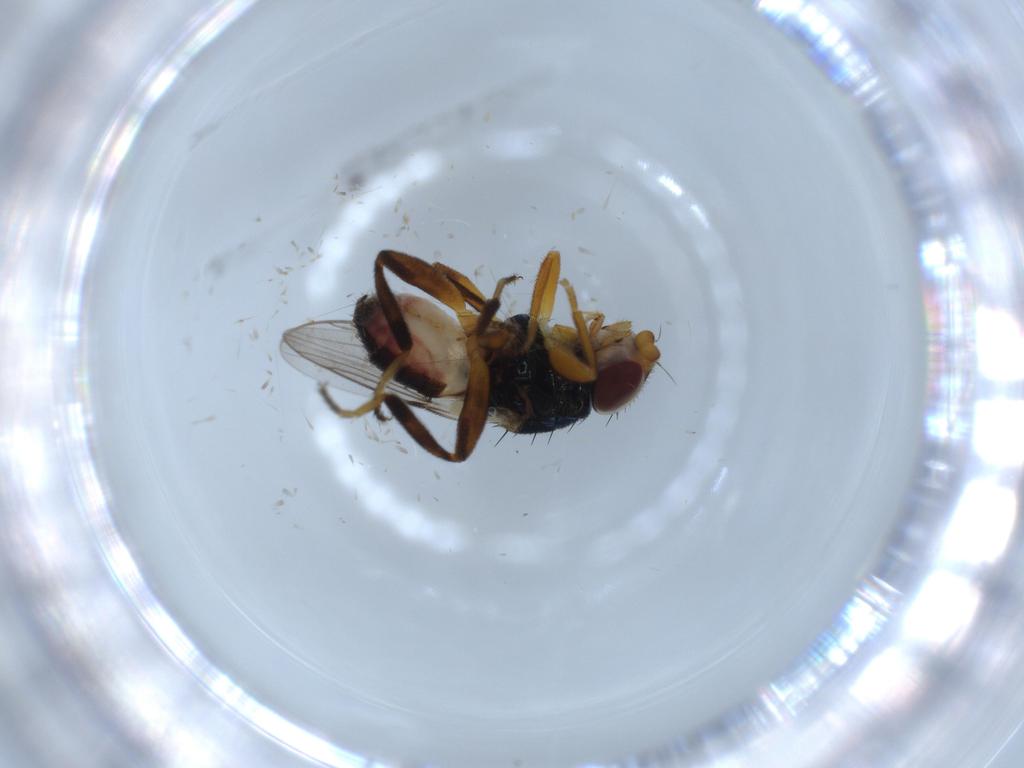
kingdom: Animalia
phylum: Arthropoda
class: Insecta
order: Diptera
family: Chloropidae
